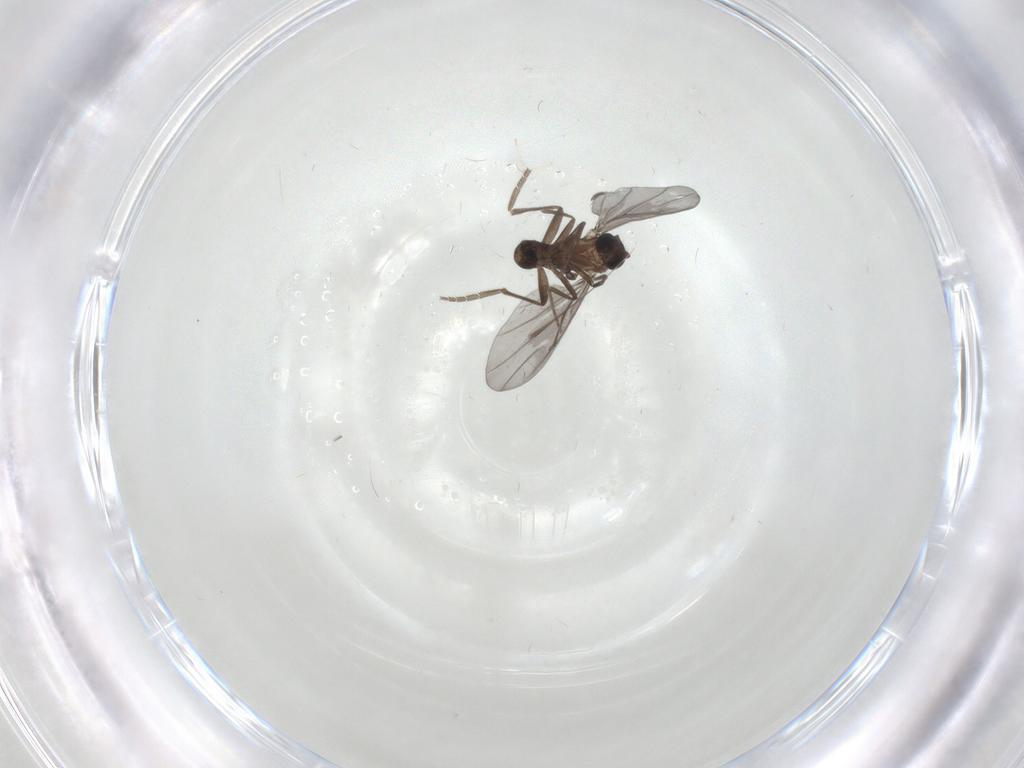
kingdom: Animalia
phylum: Arthropoda
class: Insecta
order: Diptera
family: Cecidomyiidae
